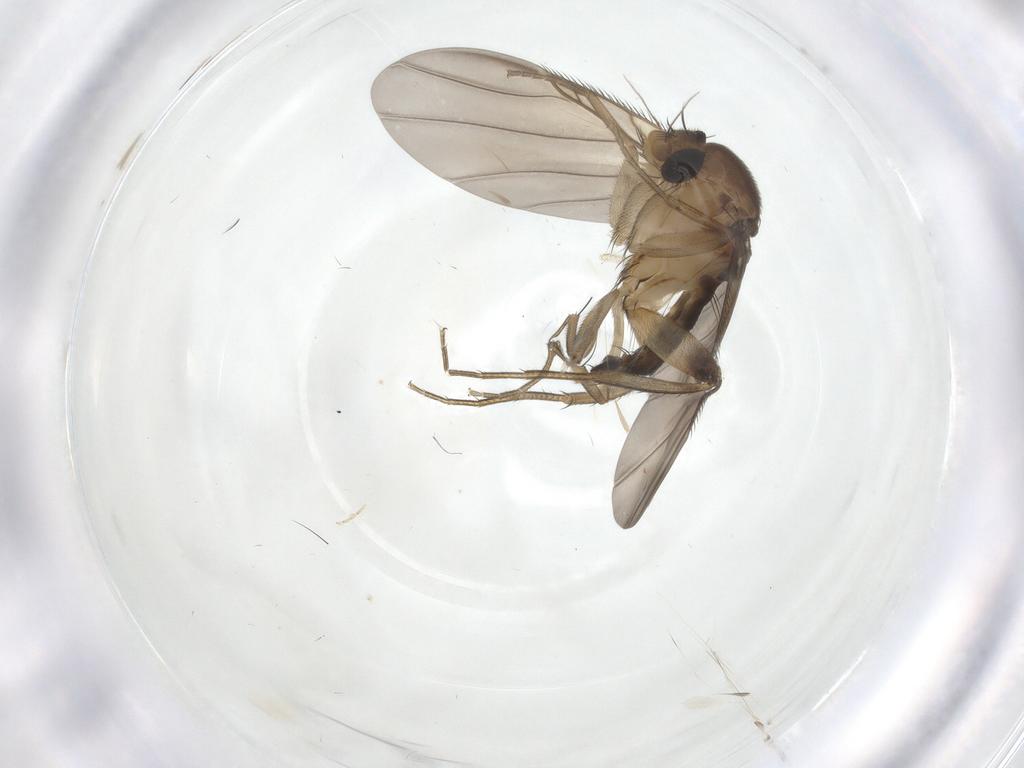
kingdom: Animalia
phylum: Arthropoda
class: Insecta
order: Diptera
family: Phoridae
